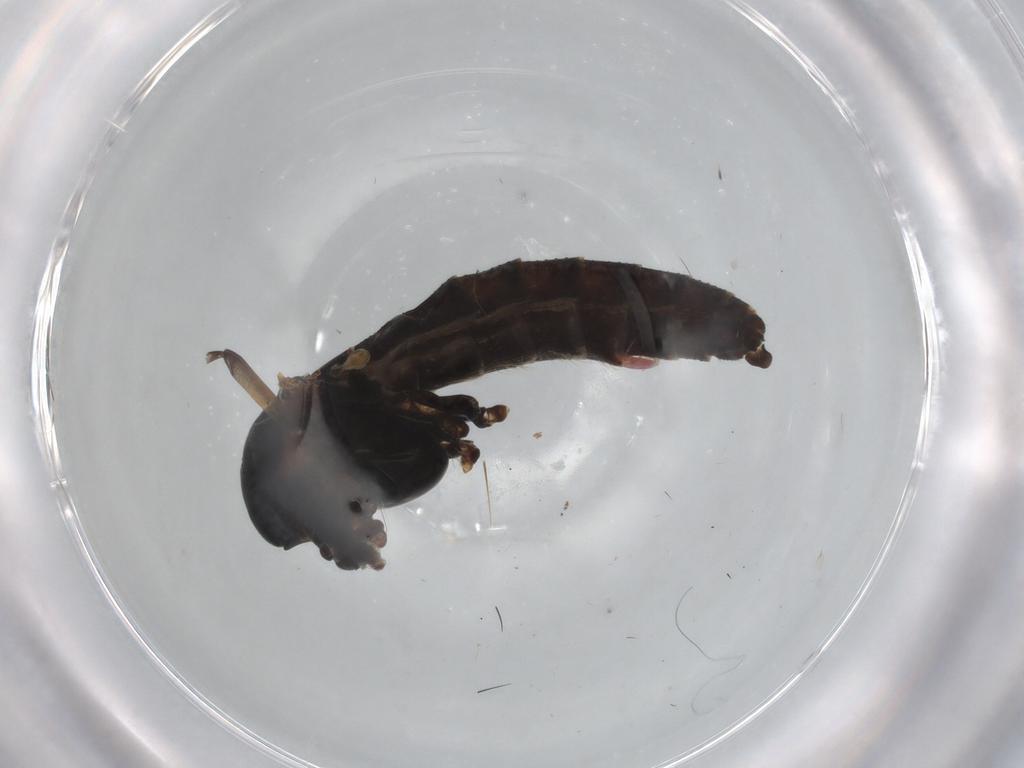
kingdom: Animalia
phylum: Arthropoda
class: Insecta
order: Diptera
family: Chironomidae
